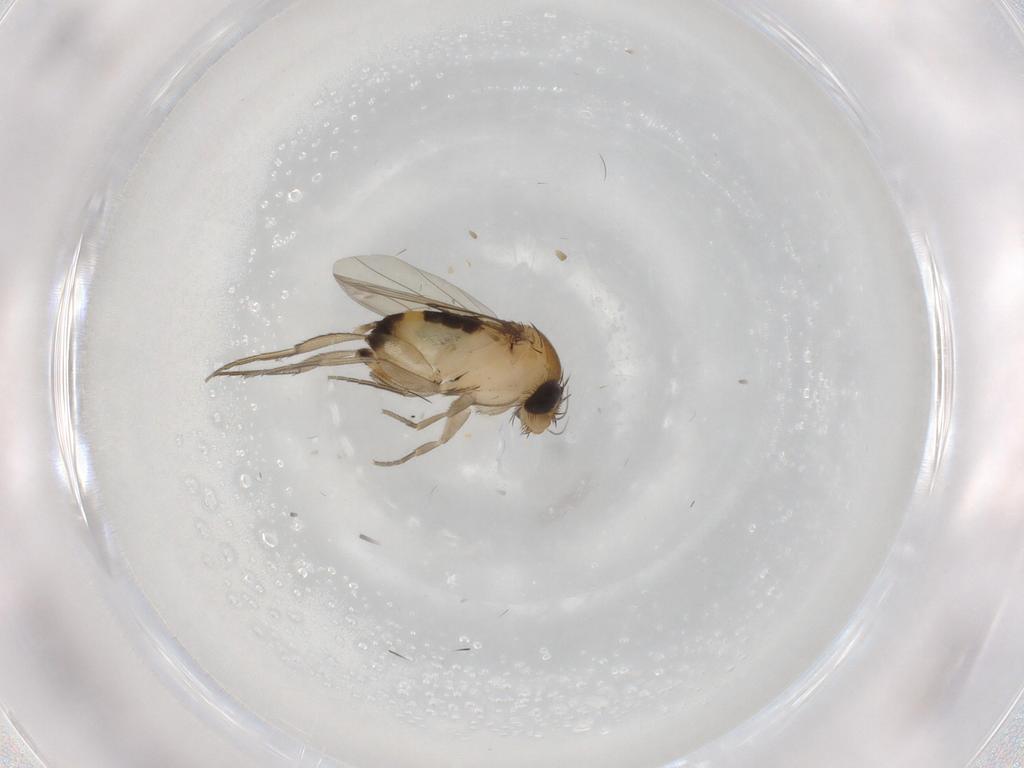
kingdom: Animalia
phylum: Arthropoda
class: Insecta
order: Diptera
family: Phoridae
